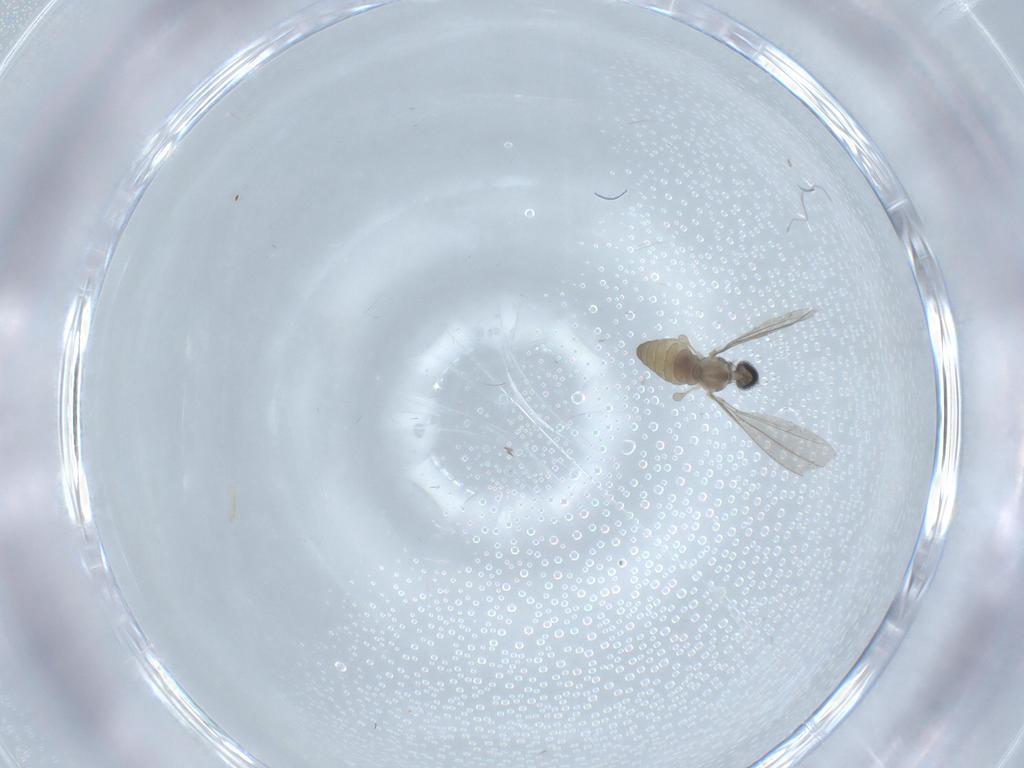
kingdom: Animalia
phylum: Arthropoda
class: Insecta
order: Diptera
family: Cecidomyiidae
